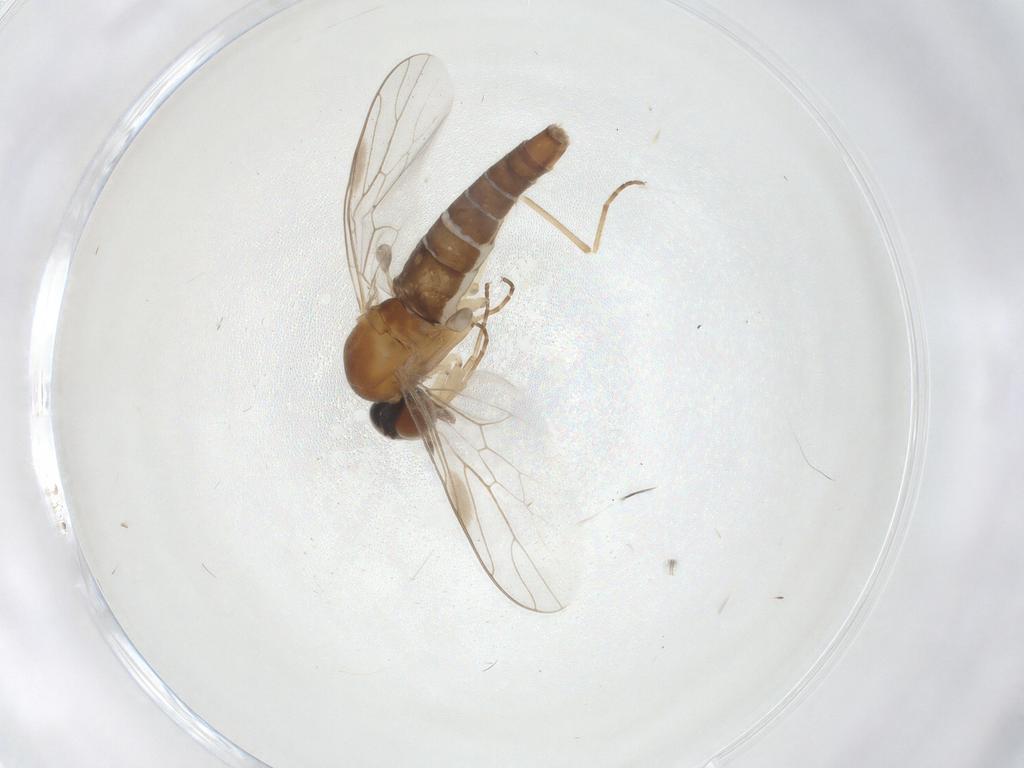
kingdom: Animalia
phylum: Arthropoda
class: Insecta
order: Diptera
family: Scenopinidae
